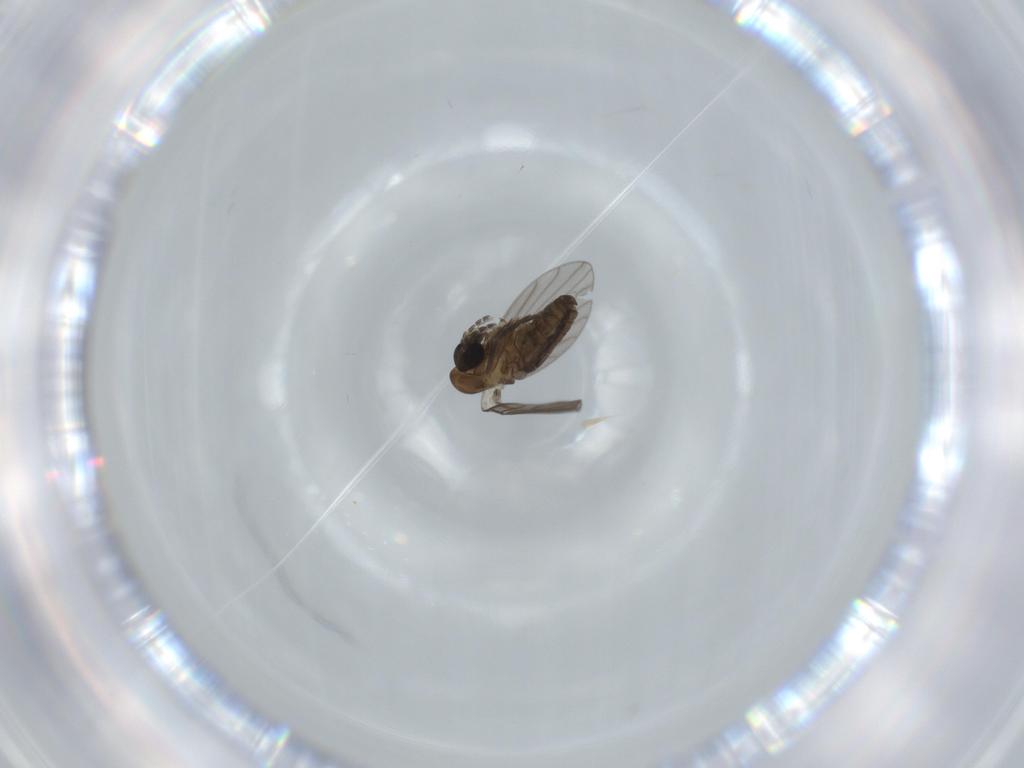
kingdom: Animalia
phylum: Arthropoda
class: Insecta
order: Diptera
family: Psychodidae
